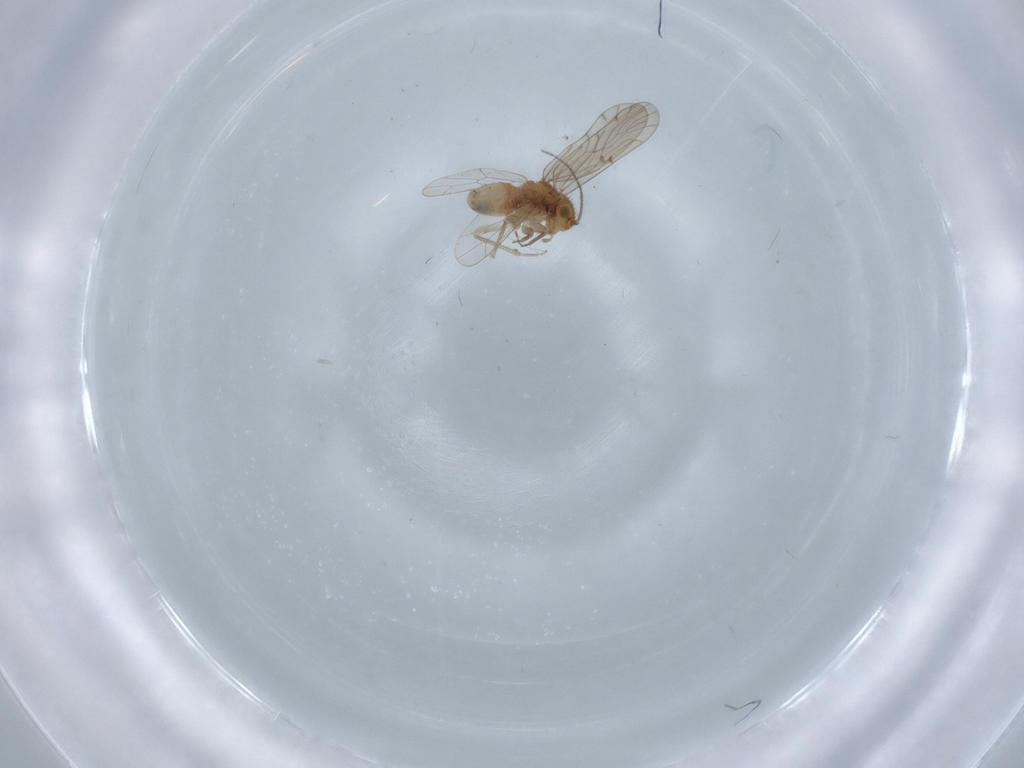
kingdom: Animalia
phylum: Arthropoda
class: Insecta
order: Psocodea
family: Ectopsocidae
